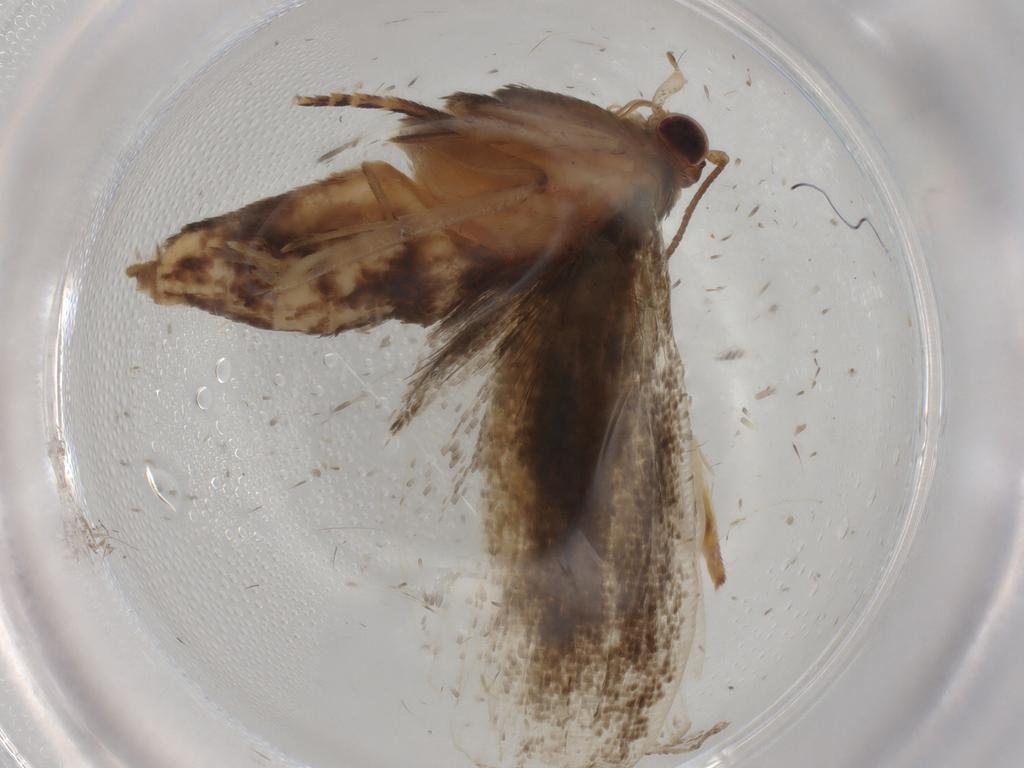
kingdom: Animalia
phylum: Arthropoda
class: Insecta
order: Lepidoptera
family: Tortricidae
